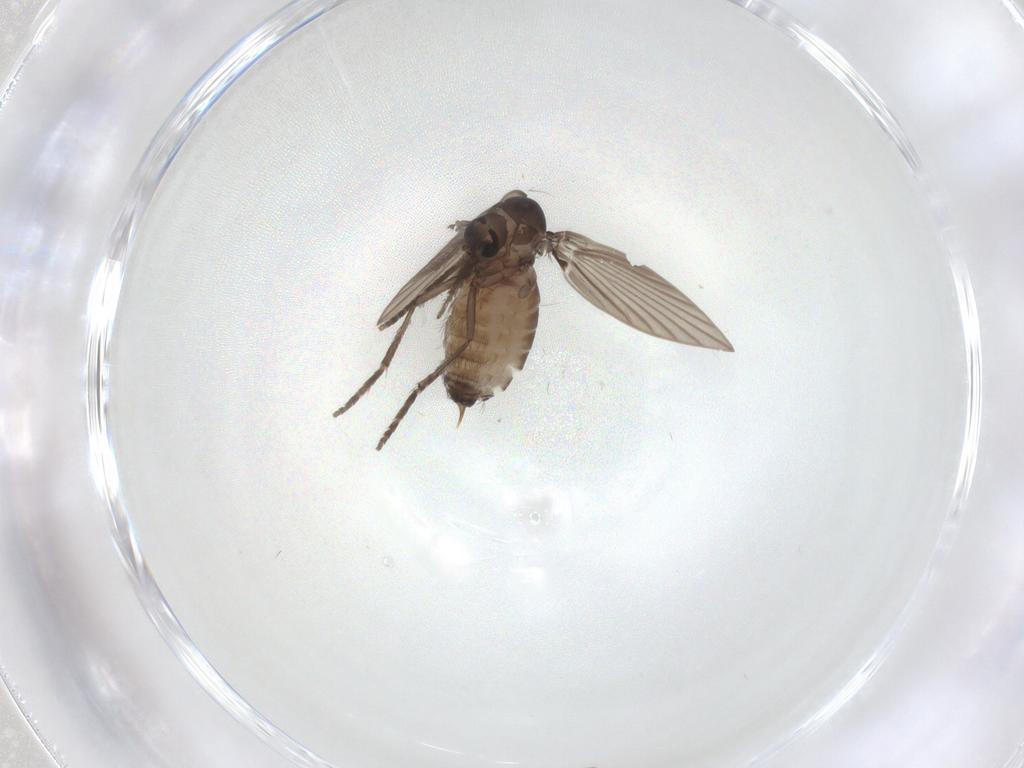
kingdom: Animalia
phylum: Arthropoda
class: Insecta
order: Diptera
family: Psychodidae
